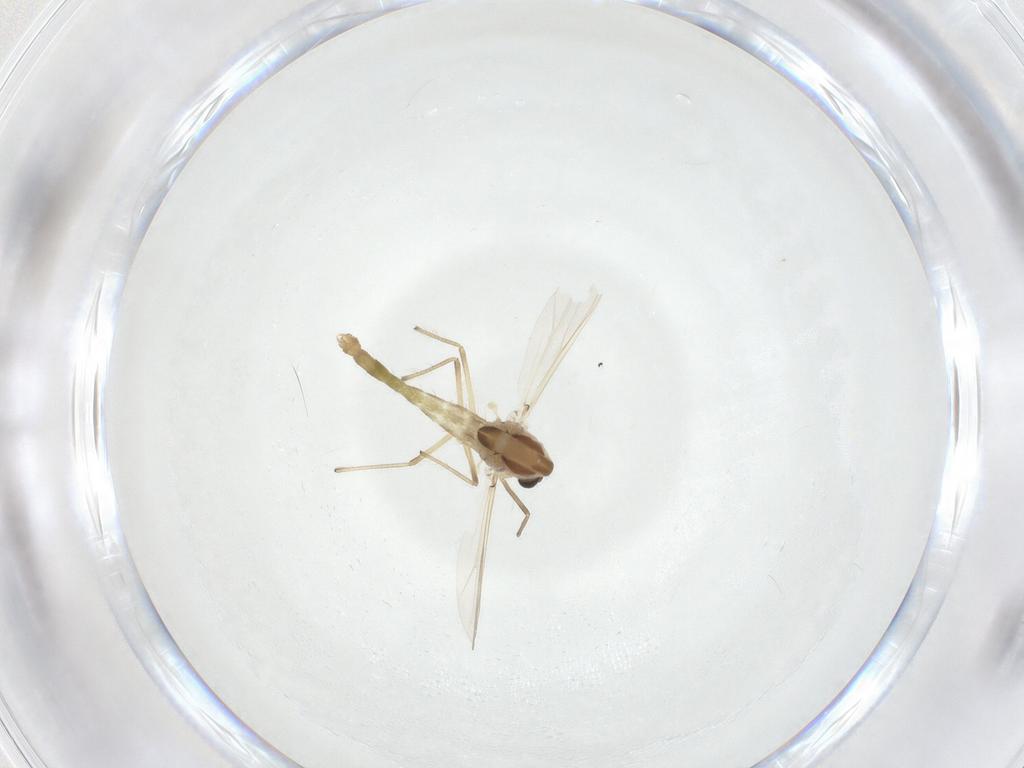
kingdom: Animalia
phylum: Arthropoda
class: Insecta
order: Diptera
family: Chironomidae
